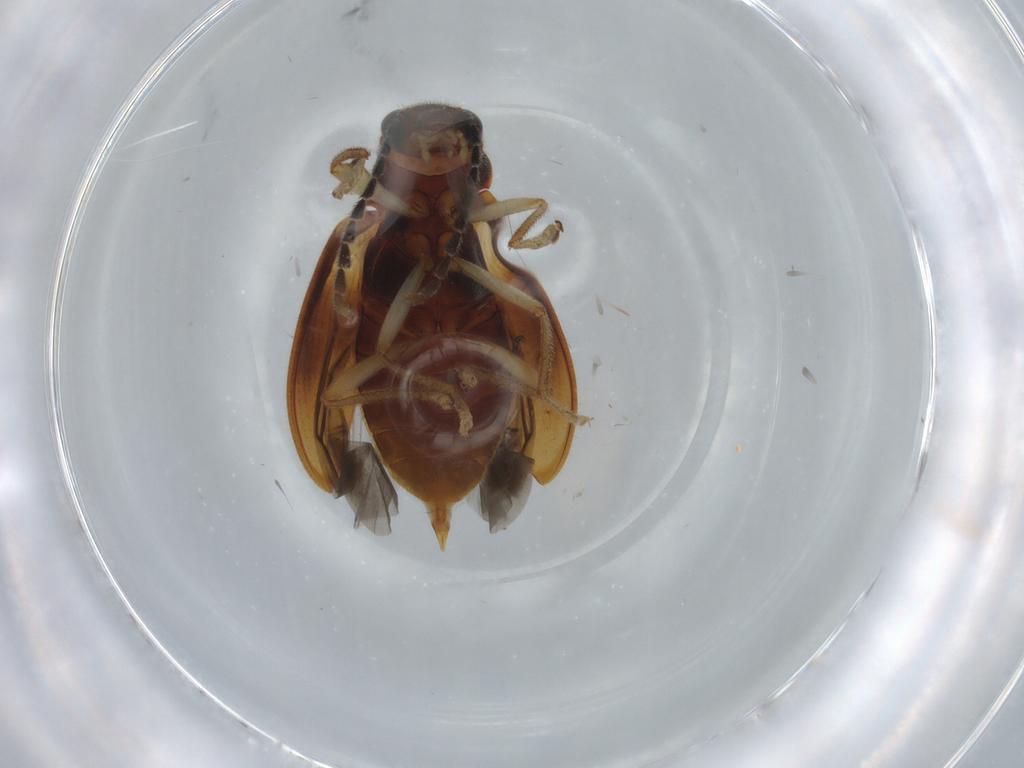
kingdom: Animalia
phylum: Arthropoda
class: Insecta
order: Coleoptera
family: Ptilodactylidae
